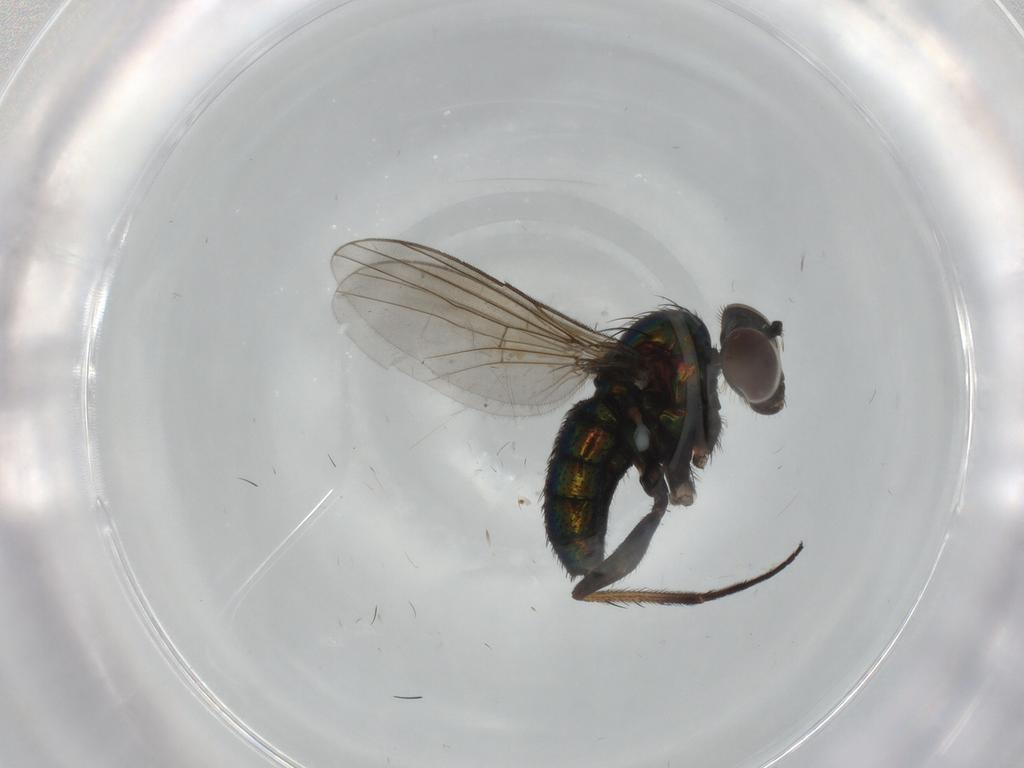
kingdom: Animalia
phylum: Arthropoda
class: Insecta
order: Diptera
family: Dolichopodidae
